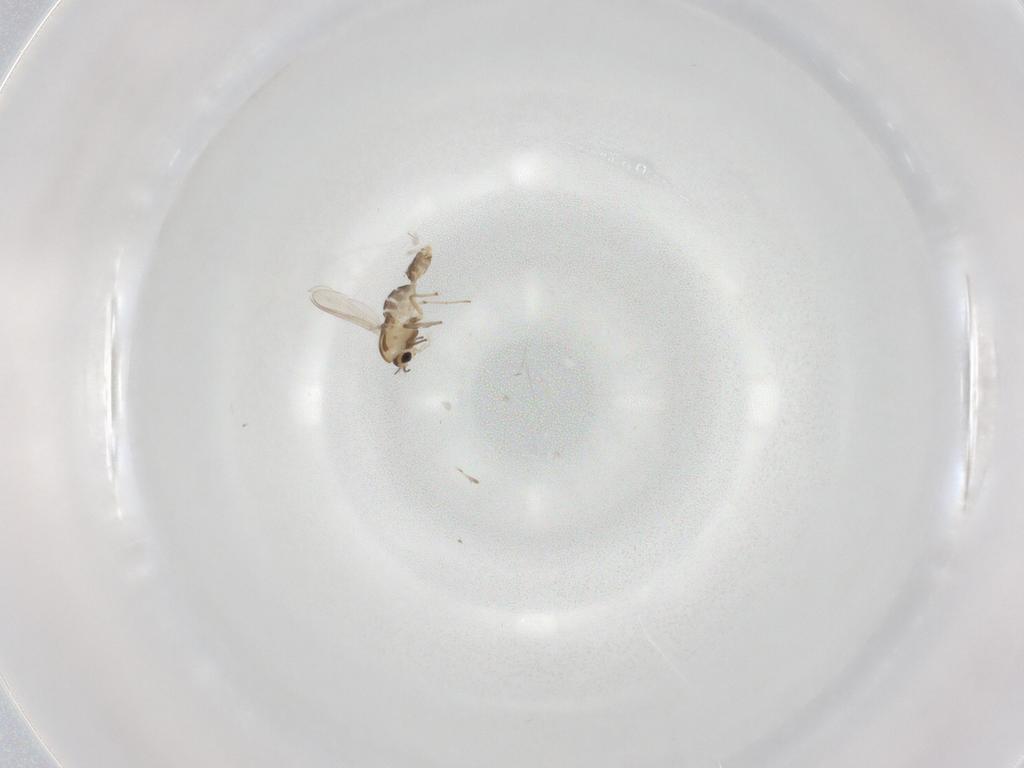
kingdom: Animalia
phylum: Arthropoda
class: Insecta
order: Diptera
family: Chironomidae
